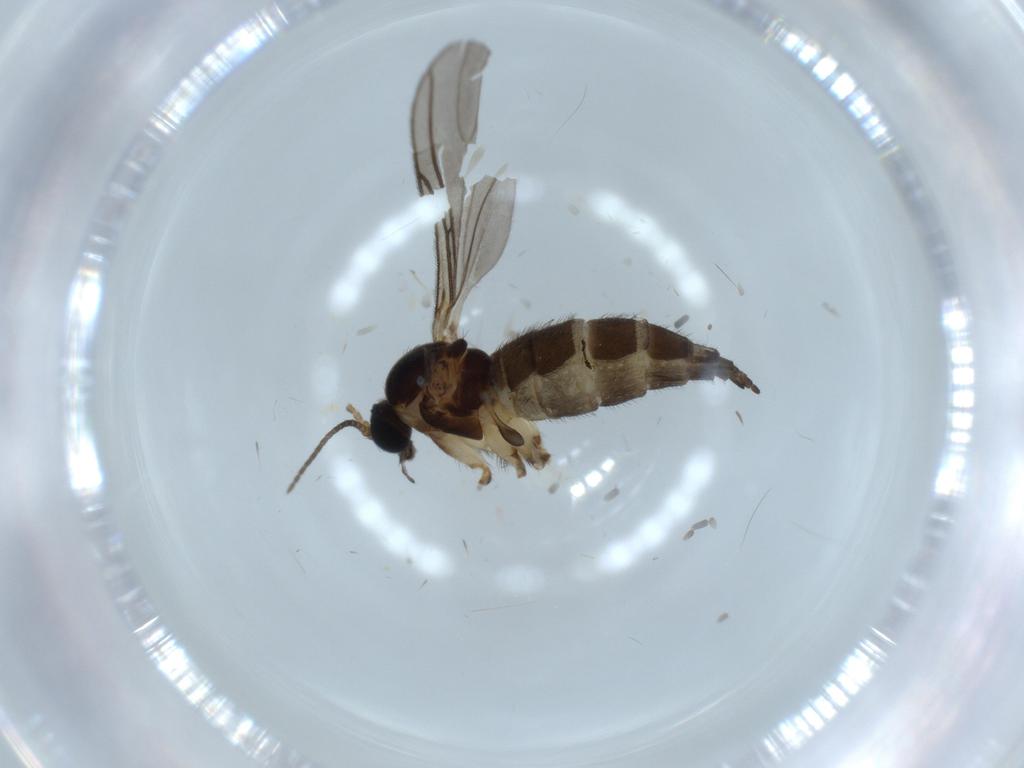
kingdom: Animalia
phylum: Arthropoda
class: Insecta
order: Diptera
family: Sciaridae
